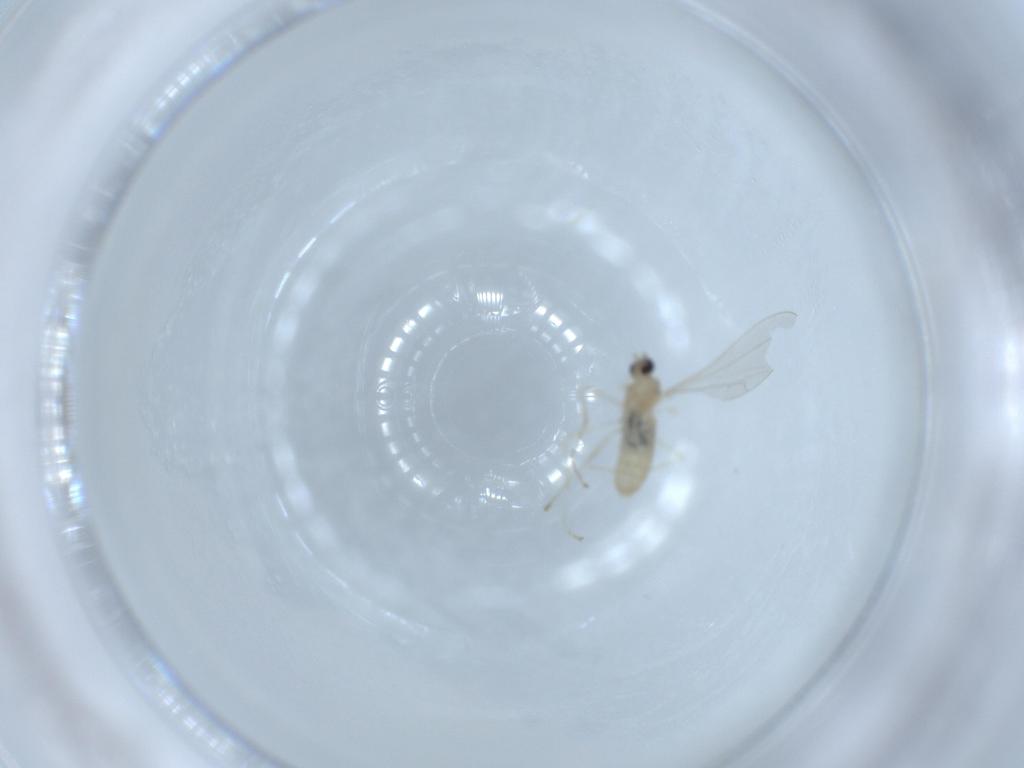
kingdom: Animalia
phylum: Arthropoda
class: Insecta
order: Diptera
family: Cecidomyiidae
